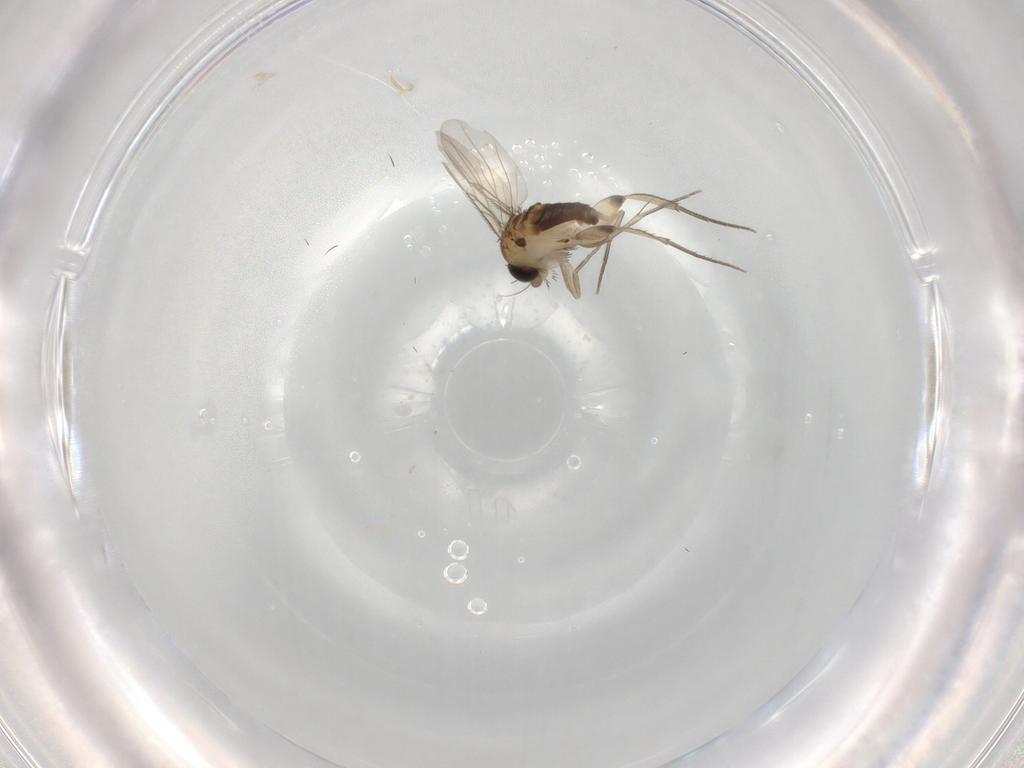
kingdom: Animalia
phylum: Arthropoda
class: Insecta
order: Diptera
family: Phoridae
